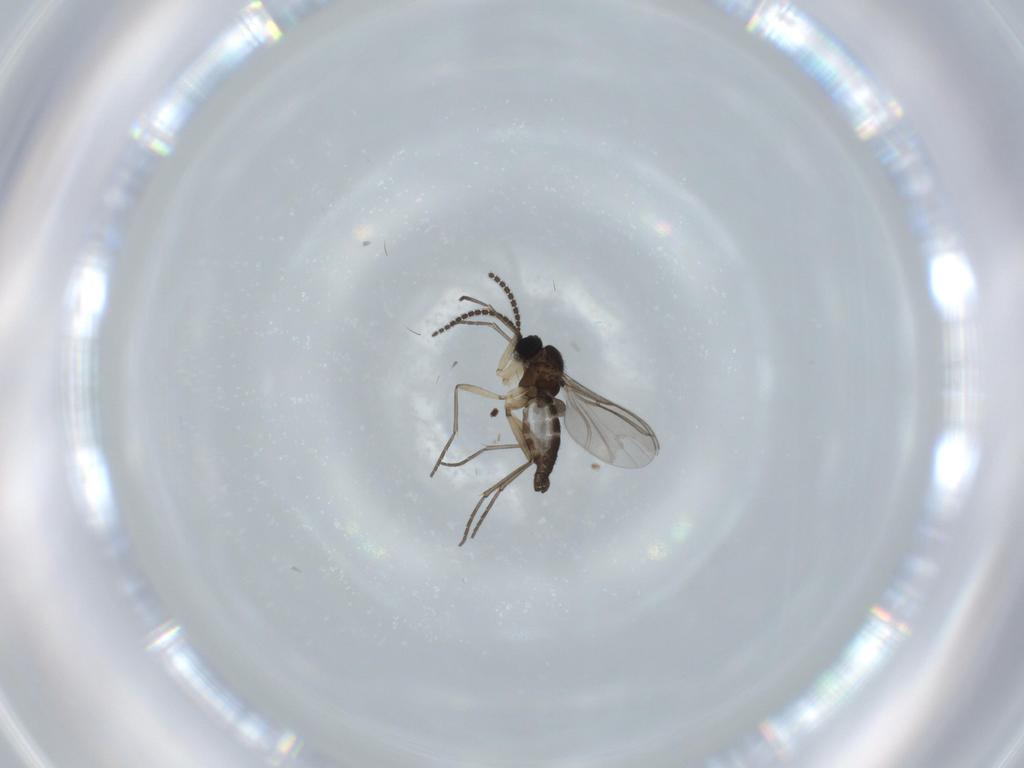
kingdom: Animalia
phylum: Arthropoda
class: Insecta
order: Diptera
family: Sciaridae
